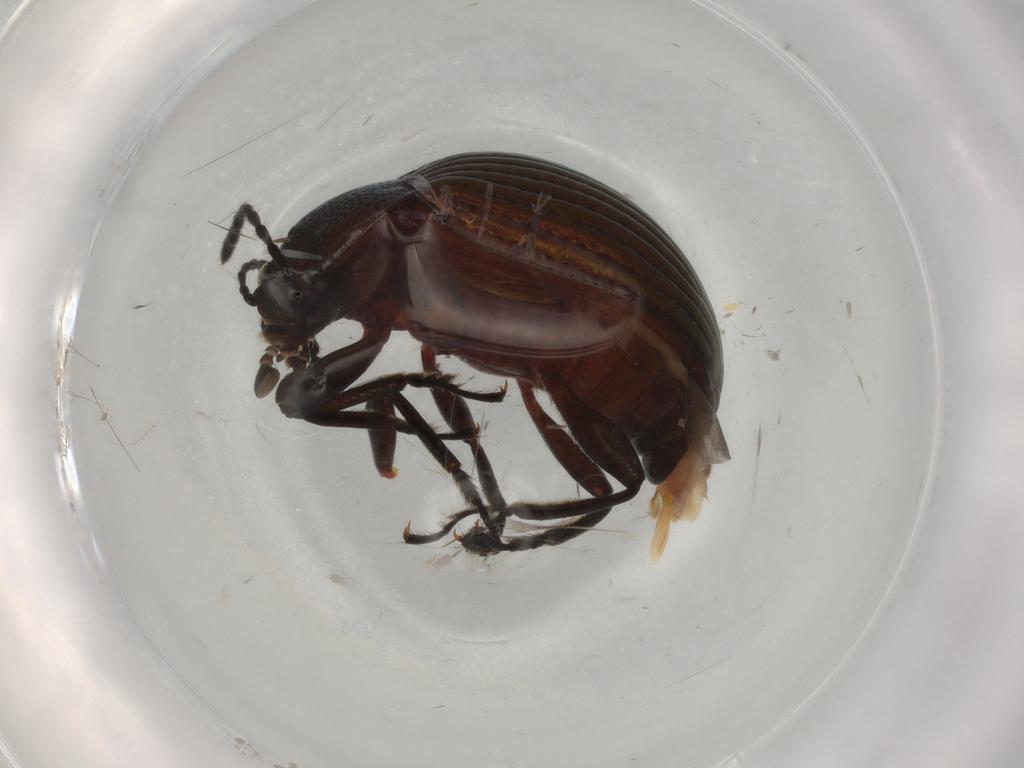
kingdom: Animalia
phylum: Arthropoda
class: Insecta
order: Coleoptera
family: Tenebrionidae
